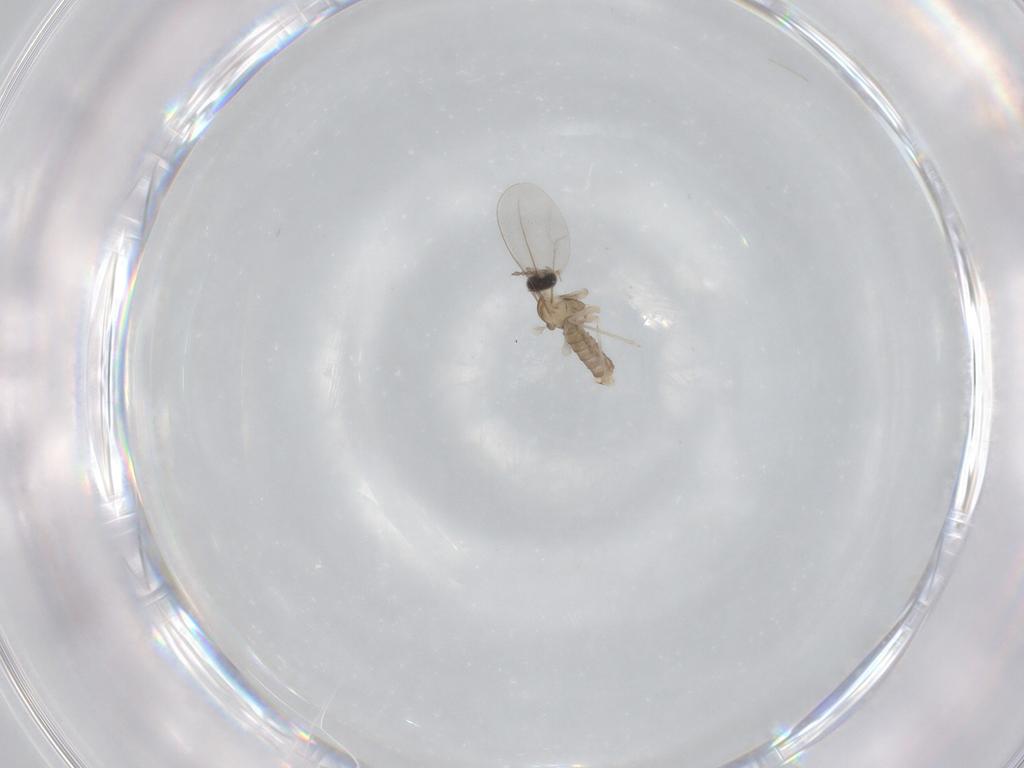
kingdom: Animalia
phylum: Arthropoda
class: Insecta
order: Diptera
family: Cecidomyiidae
